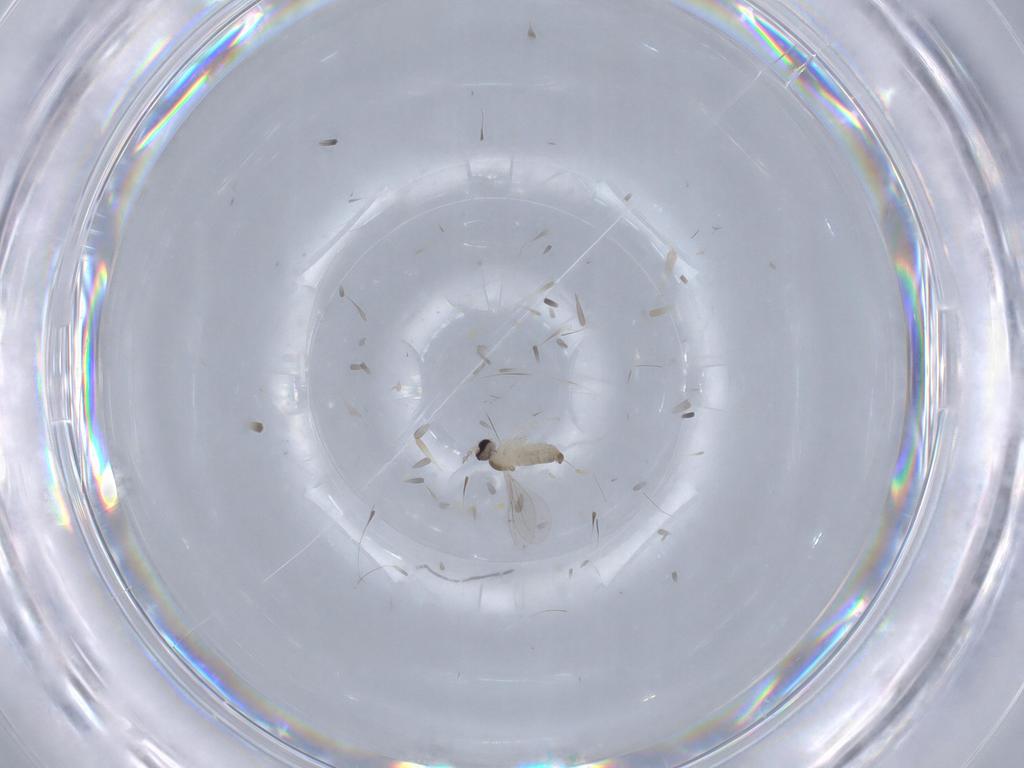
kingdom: Animalia
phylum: Arthropoda
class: Insecta
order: Diptera
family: Cecidomyiidae
